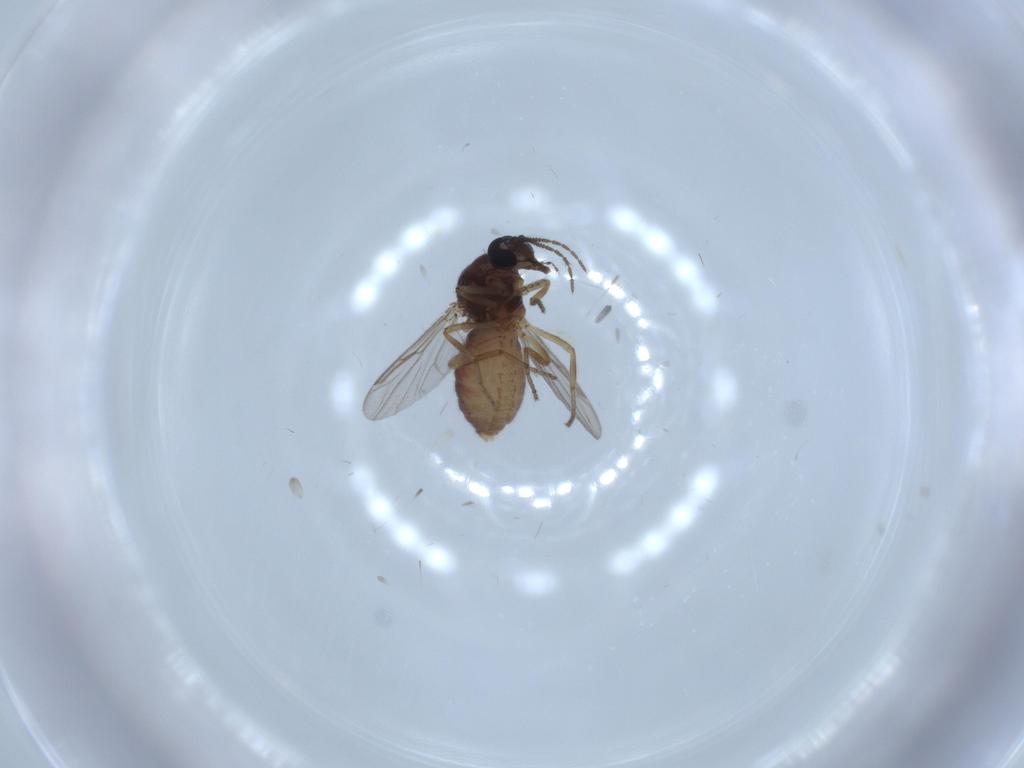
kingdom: Animalia
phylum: Arthropoda
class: Insecta
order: Diptera
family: Ceratopogonidae
